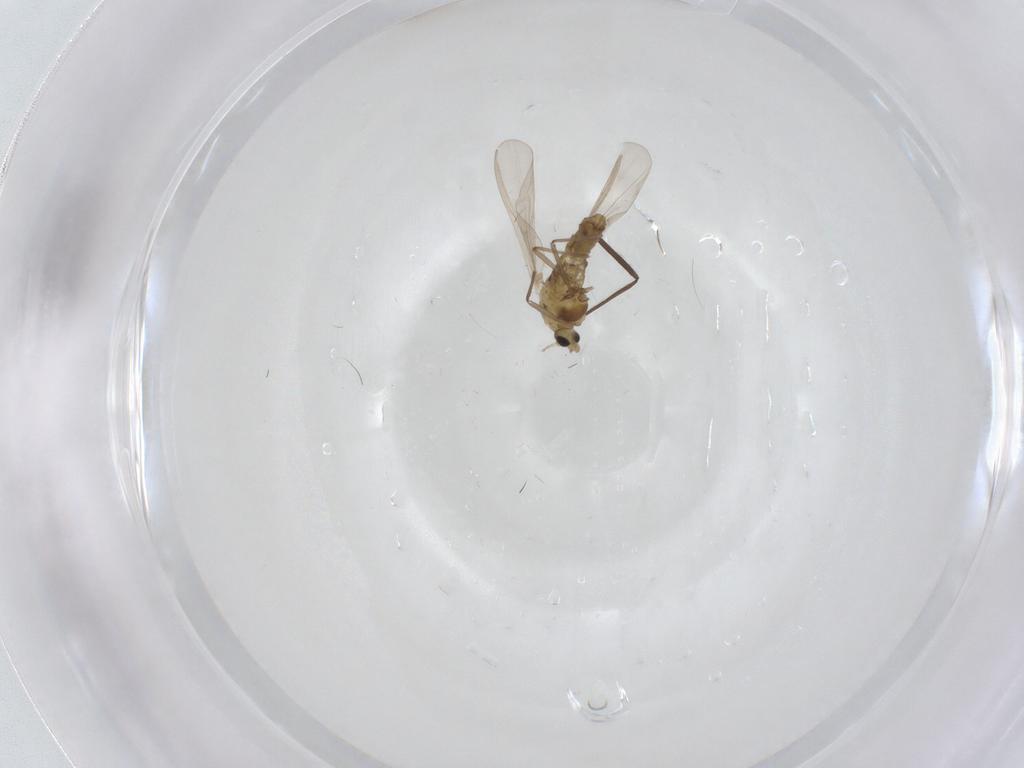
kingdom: Animalia
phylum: Arthropoda
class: Insecta
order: Diptera
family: Chironomidae
